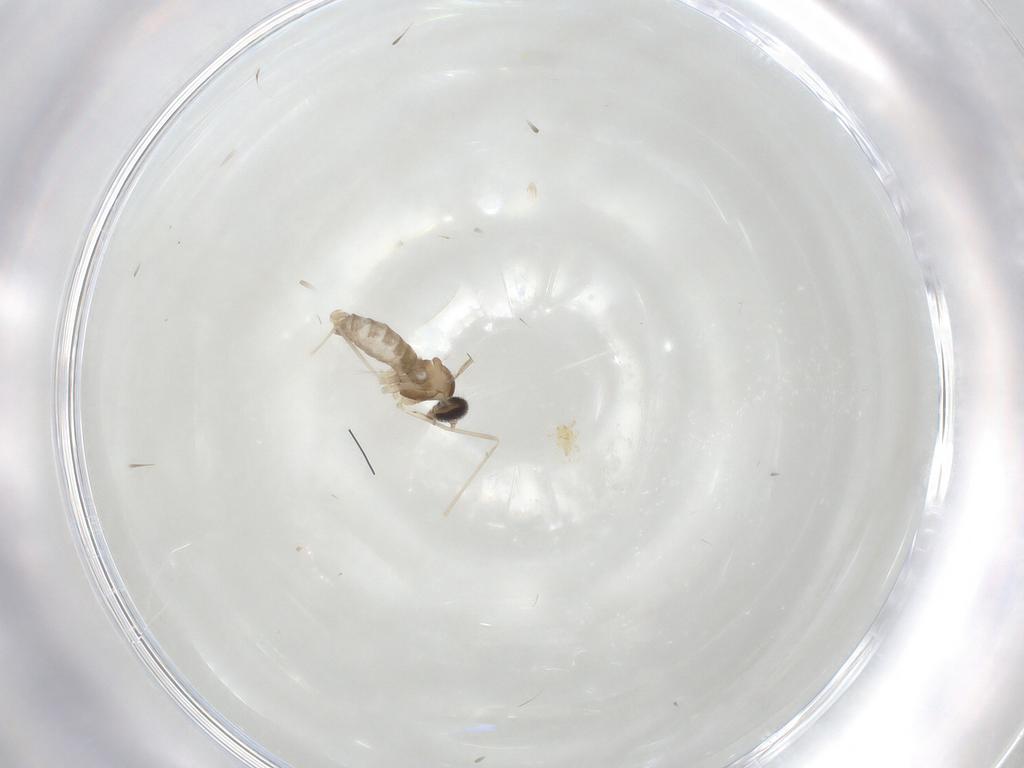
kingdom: Animalia
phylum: Arthropoda
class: Insecta
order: Diptera
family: Cecidomyiidae
